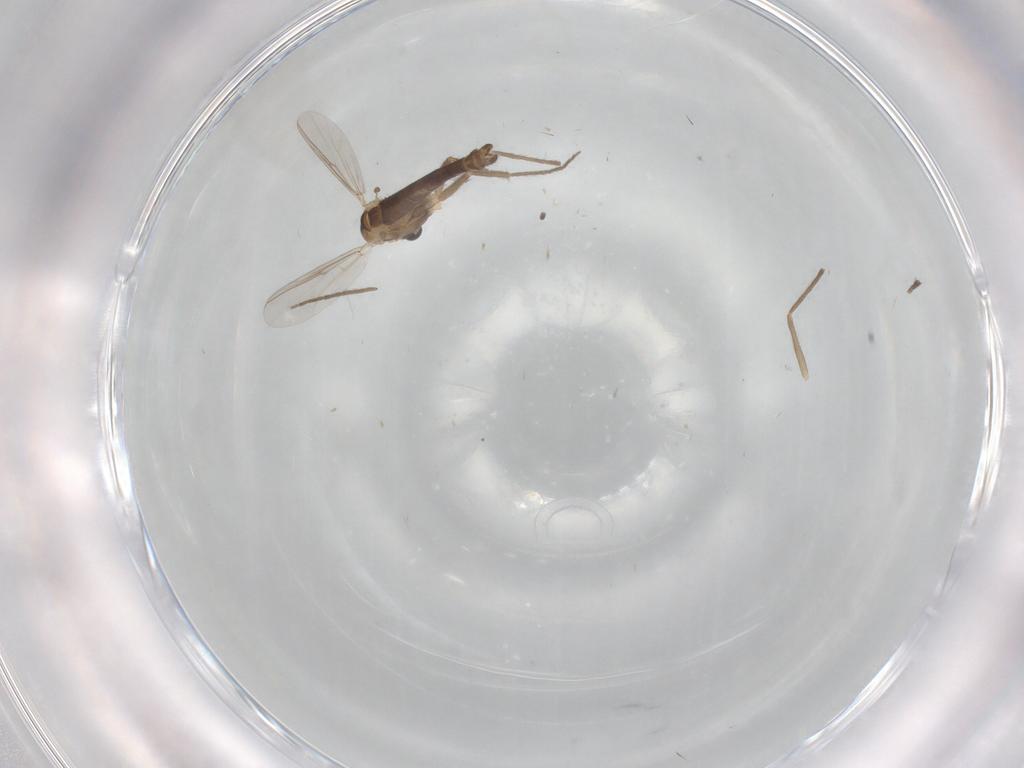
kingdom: Animalia
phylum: Arthropoda
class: Insecta
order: Diptera
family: Chironomidae
